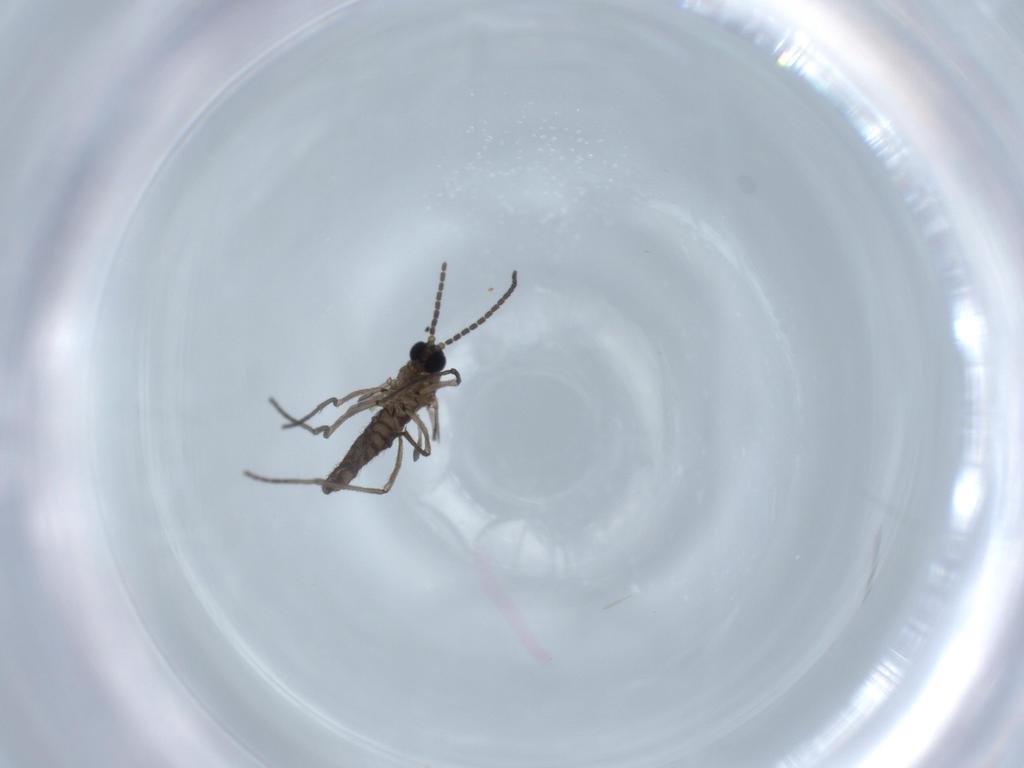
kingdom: Animalia
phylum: Arthropoda
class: Insecta
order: Diptera
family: Sciaridae
